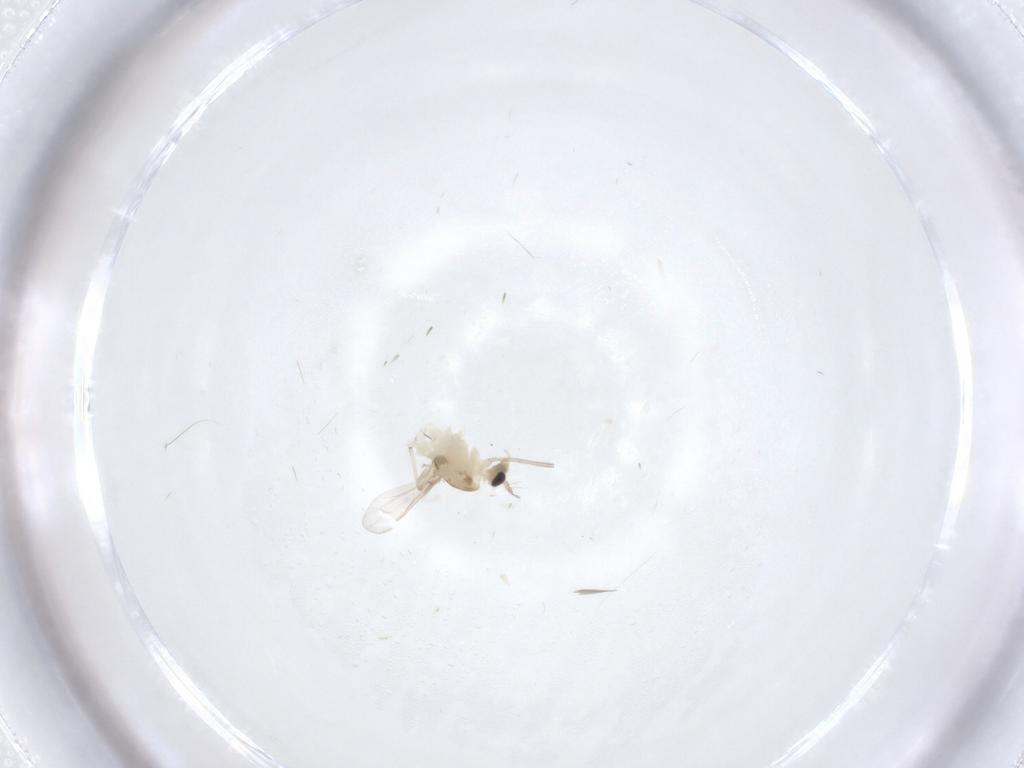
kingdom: Animalia
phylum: Arthropoda
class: Insecta
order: Diptera
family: Chironomidae
